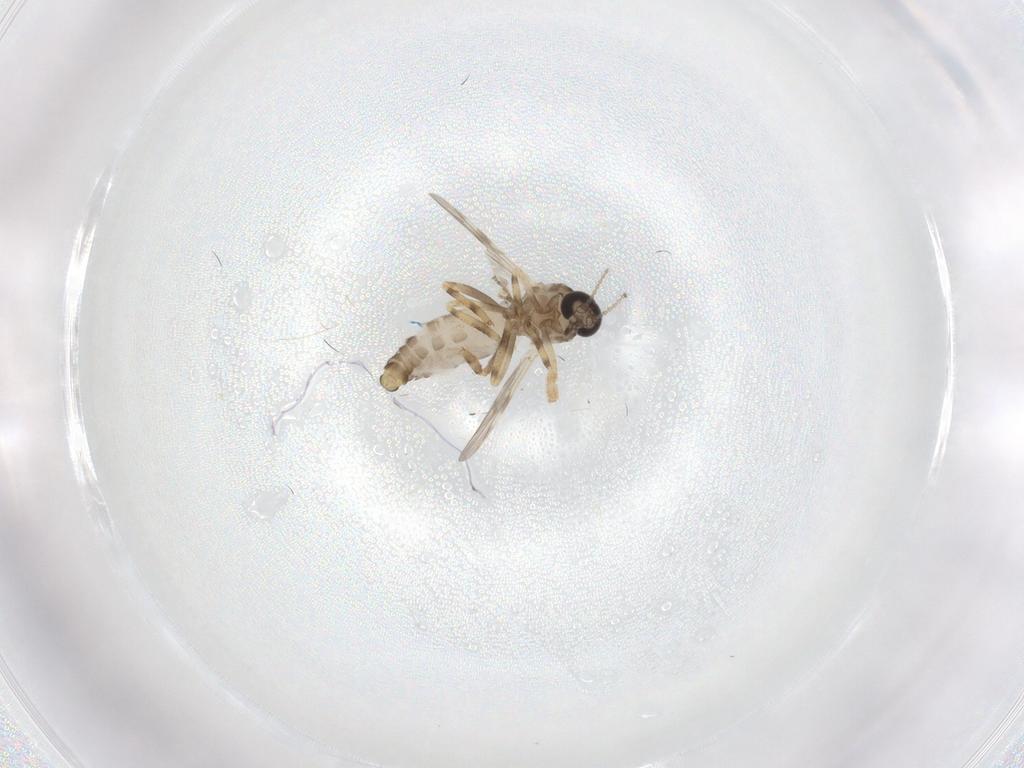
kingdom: Animalia
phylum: Arthropoda
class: Insecta
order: Diptera
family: Ceratopogonidae
